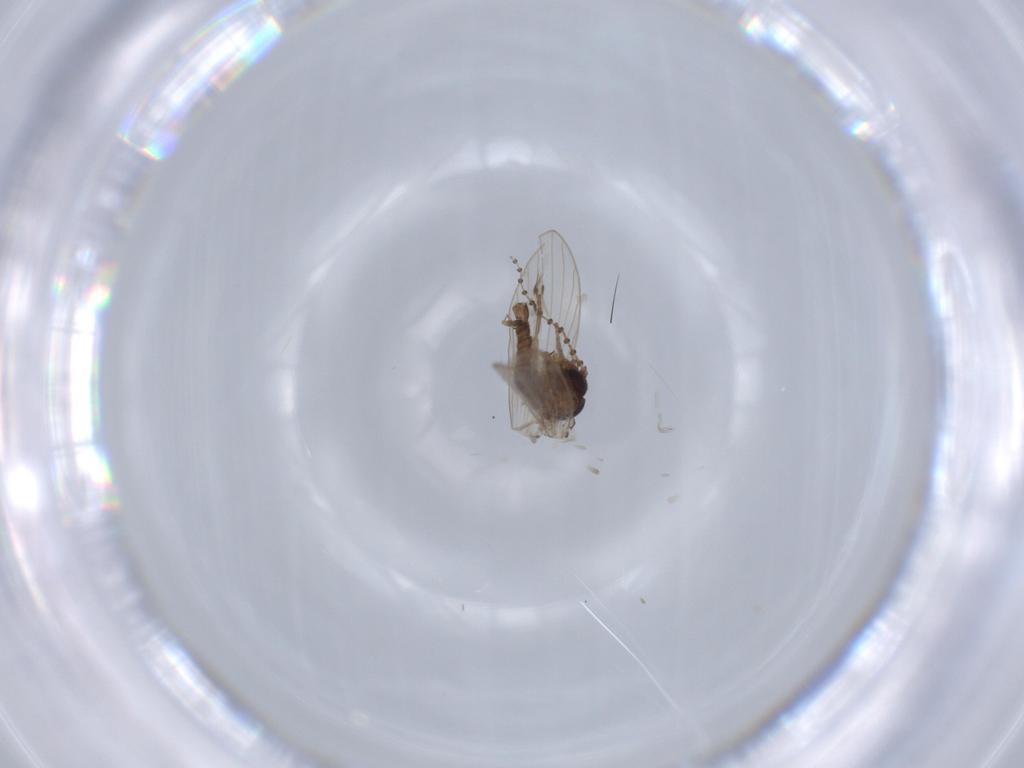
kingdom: Animalia
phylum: Arthropoda
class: Insecta
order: Diptera
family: Psychodidae
